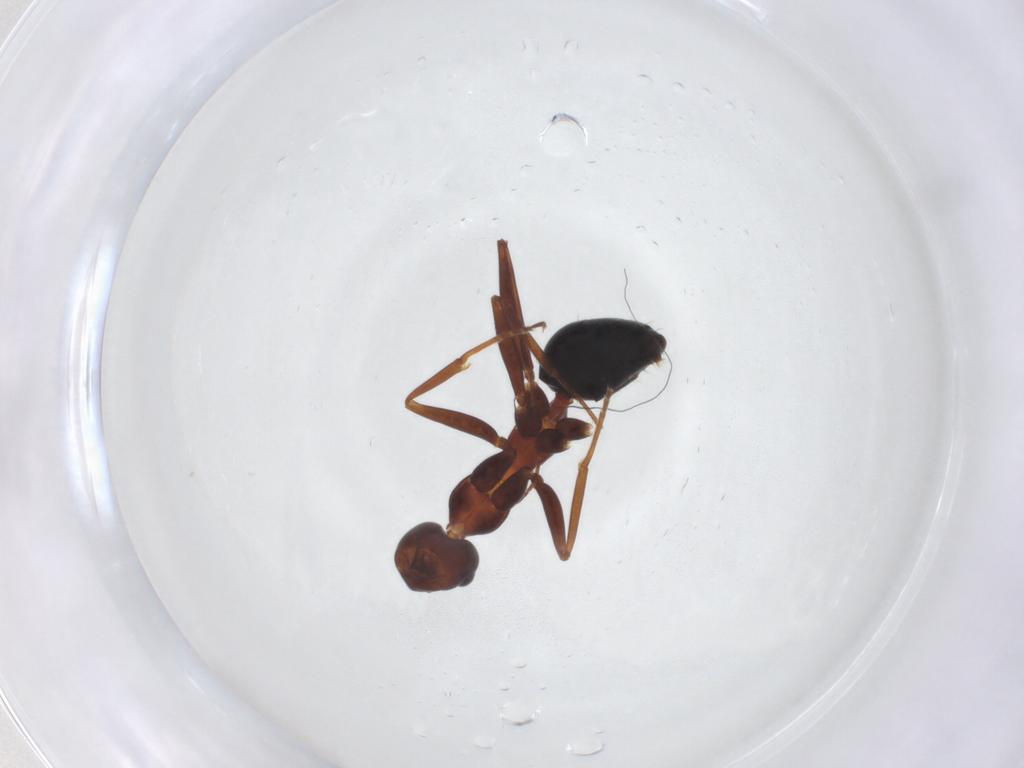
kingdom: Animalia
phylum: Arthropoda
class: Insecta
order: Hymenoptera
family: Formicidae
